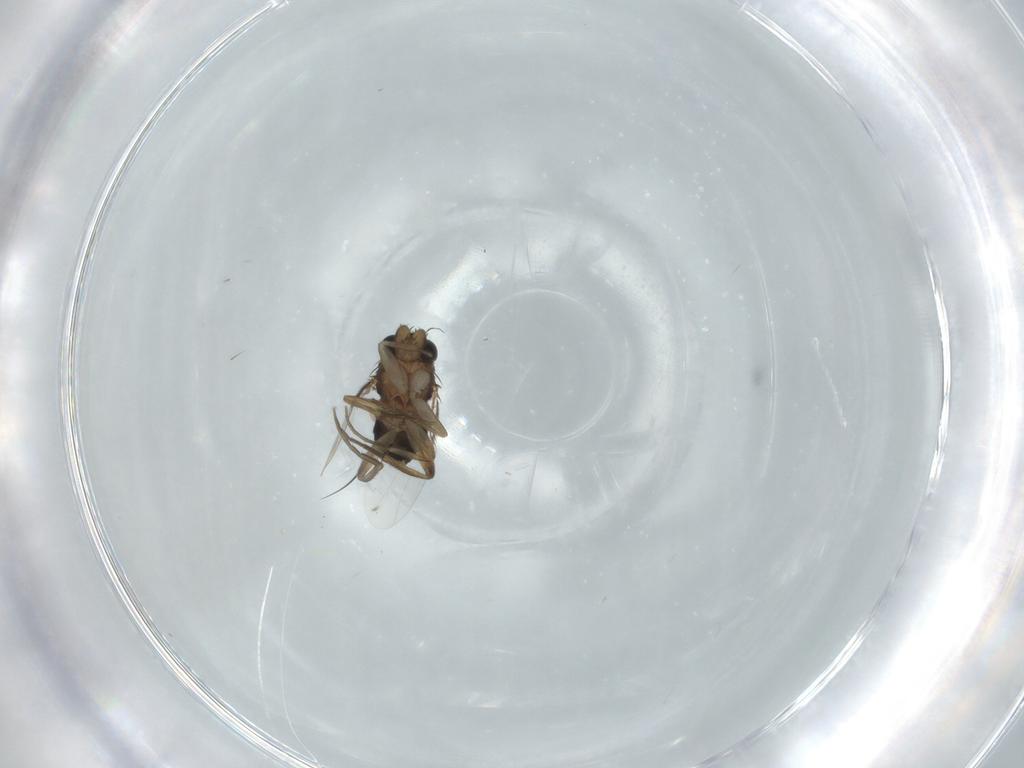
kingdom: Animalia
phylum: Arthropoda
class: Insecta
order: Diptera
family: Phoridae
